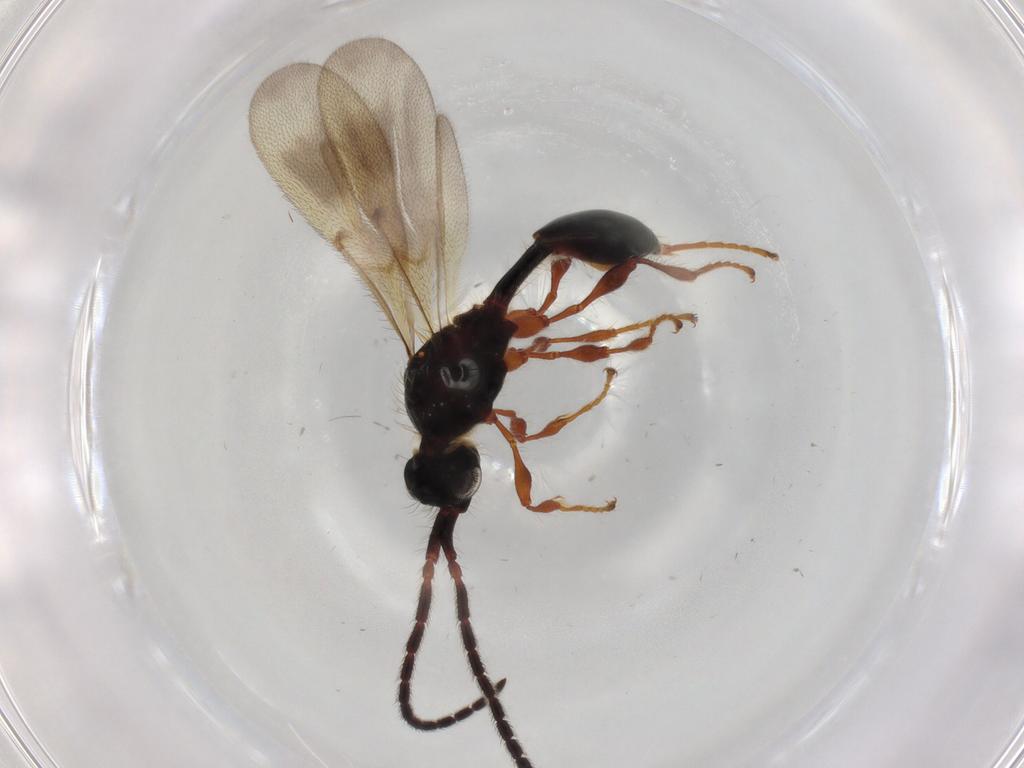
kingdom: Animalia
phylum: Arthropoda
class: Insecta
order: Hymenoptera
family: Diapriidae
